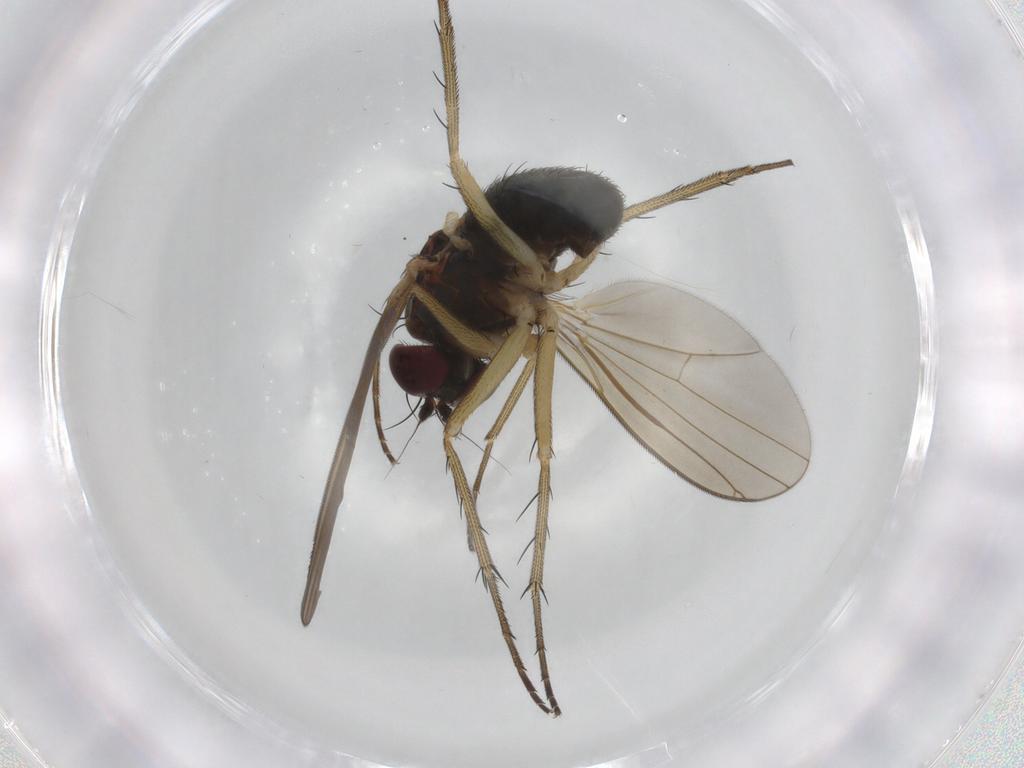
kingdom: Animalia
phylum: Arthropoda
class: Insecta
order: Diptera
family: Dolichopodidae
